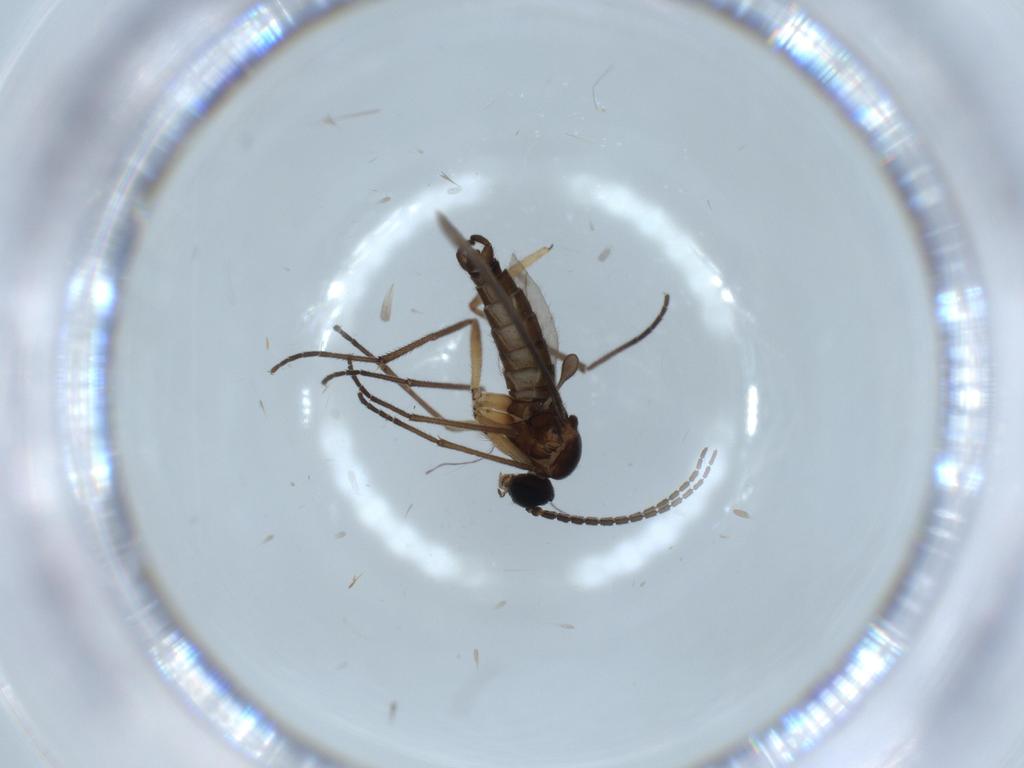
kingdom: Animalia
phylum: Arthropoda
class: Insecta
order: Diptera
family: Sciaridae
